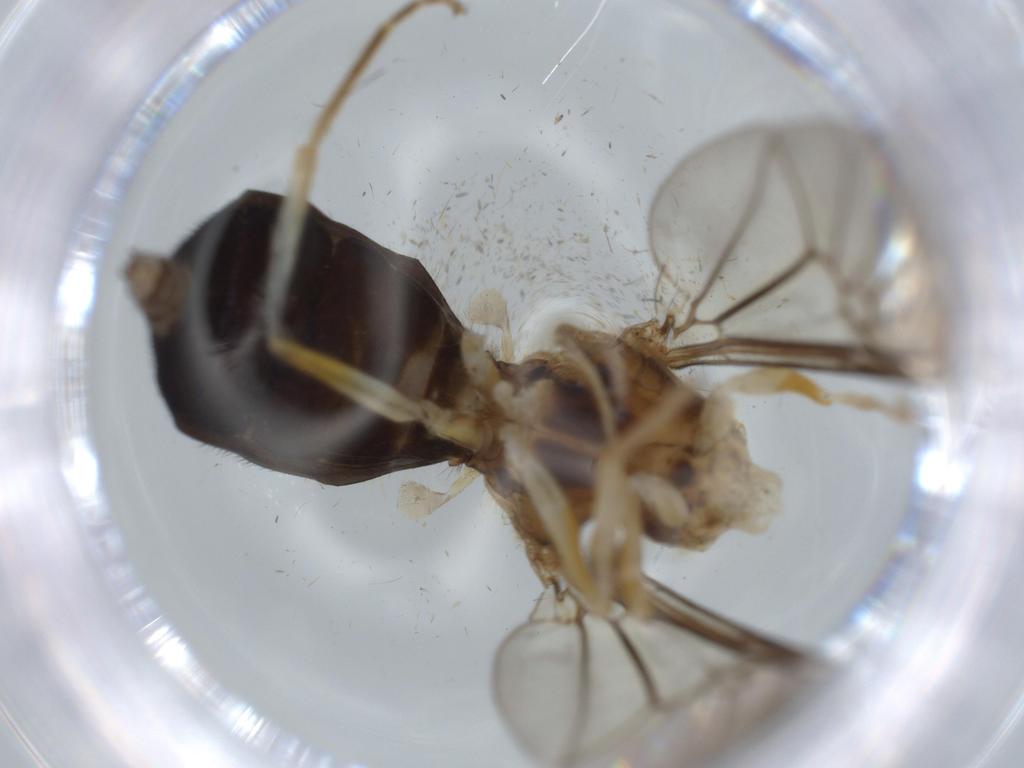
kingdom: Animalia
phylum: Arthropoda
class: Insecta
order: Diptera
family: Stratiomyidae
